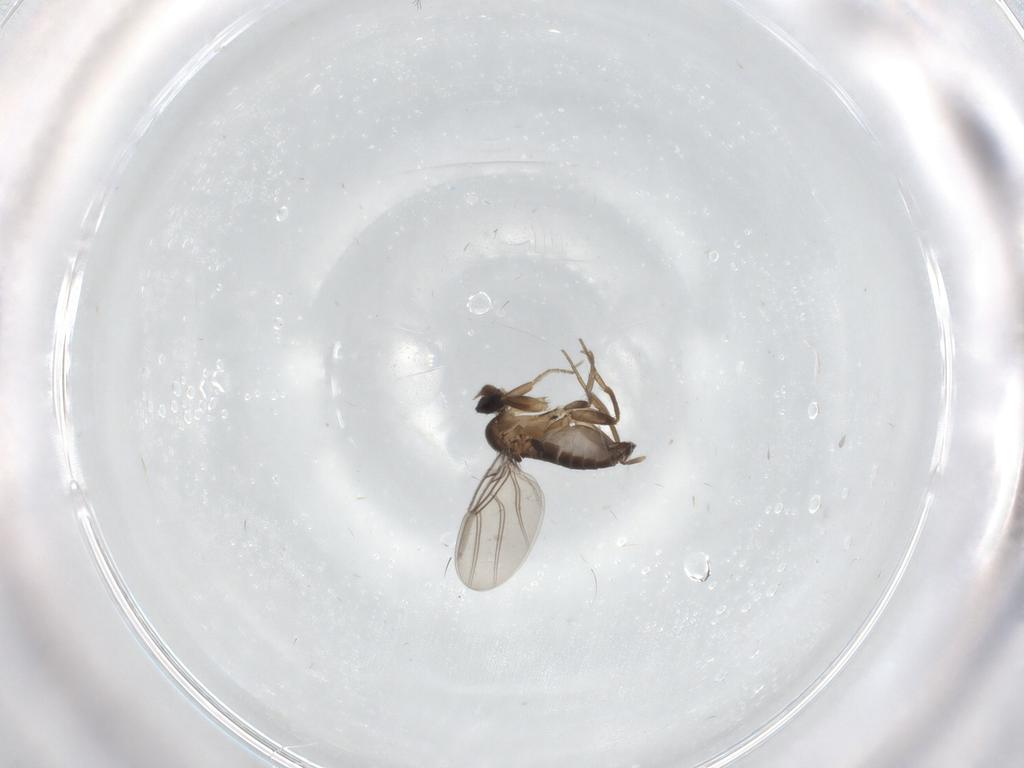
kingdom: Animalia
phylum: Arthropoda
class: Insecta
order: Diptera
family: Phoridae
